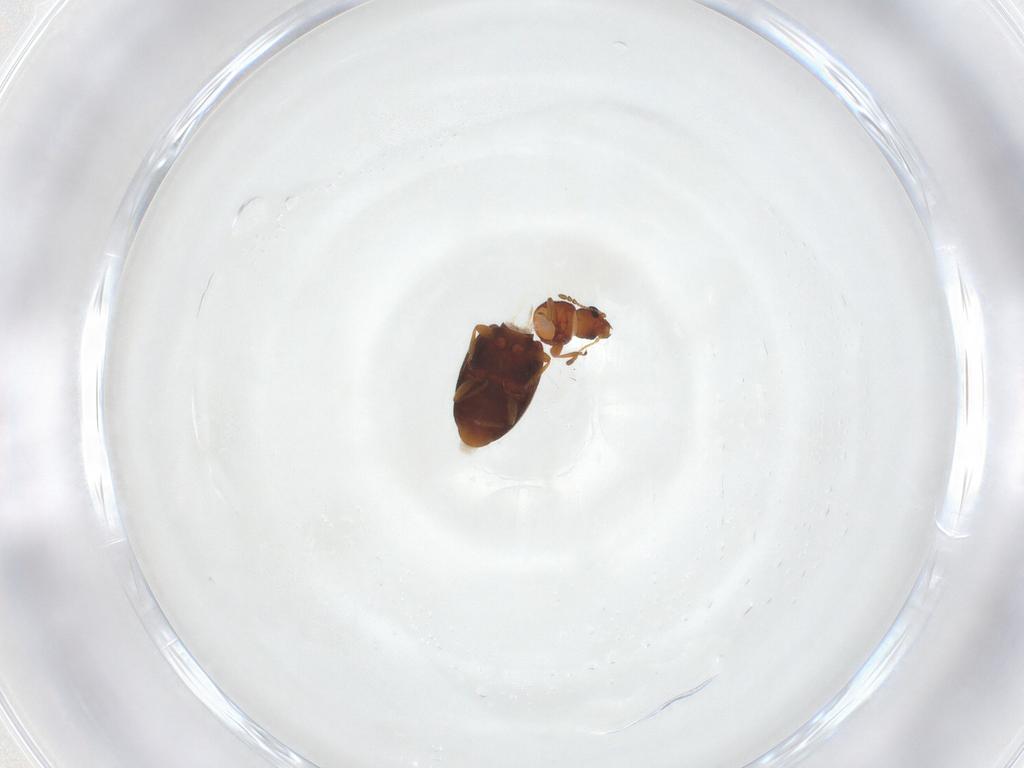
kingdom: Animalia
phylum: Arthropoda
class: Insecta
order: Coleoptera
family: Latridiidae
